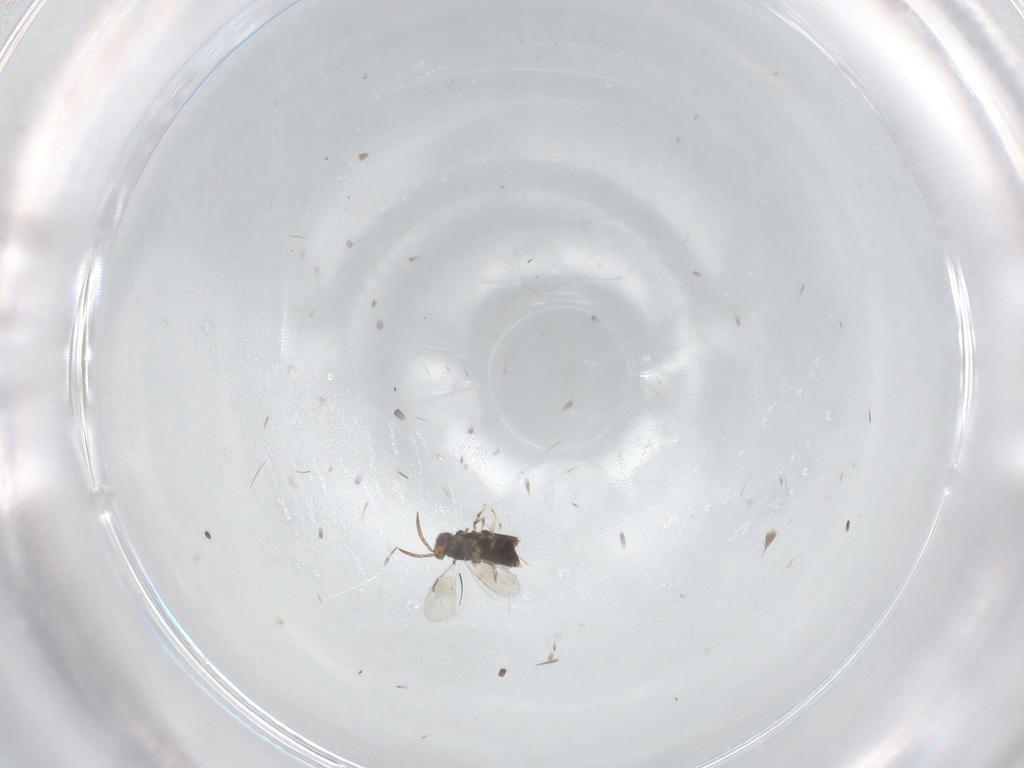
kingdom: Animalia
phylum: Arthropoda
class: Insecta
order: Hymenoptera
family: Aphelinidae
